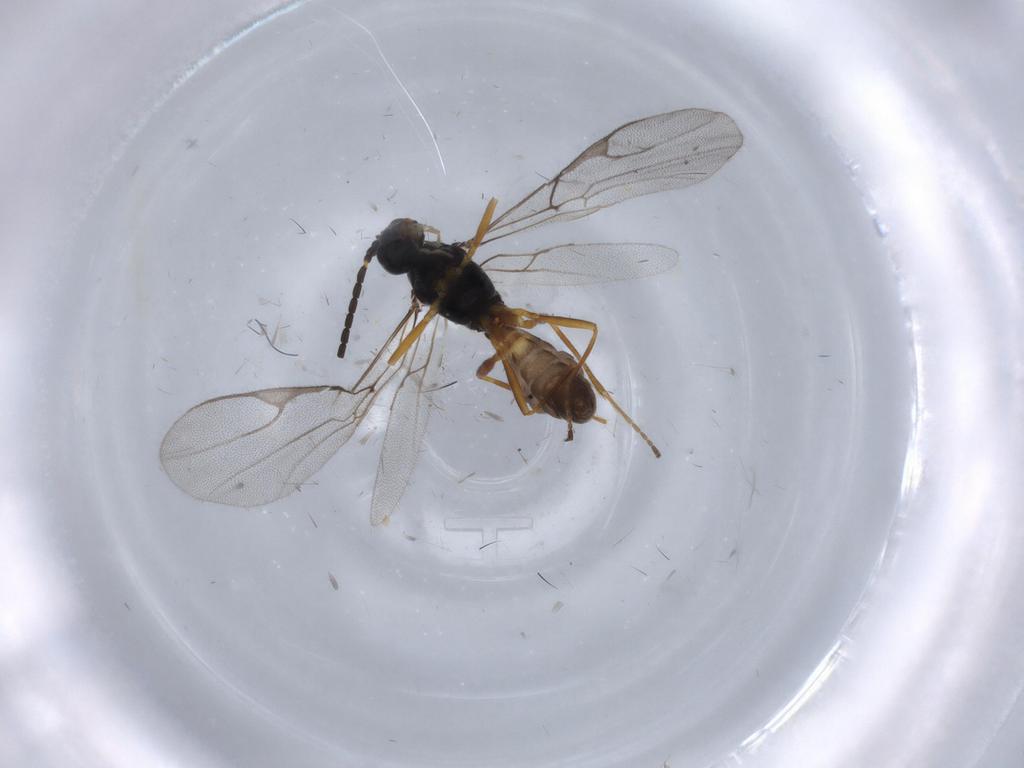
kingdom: Animalia
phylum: Arthropoda
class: Insecta
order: Hymenoptera
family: Braconidae
